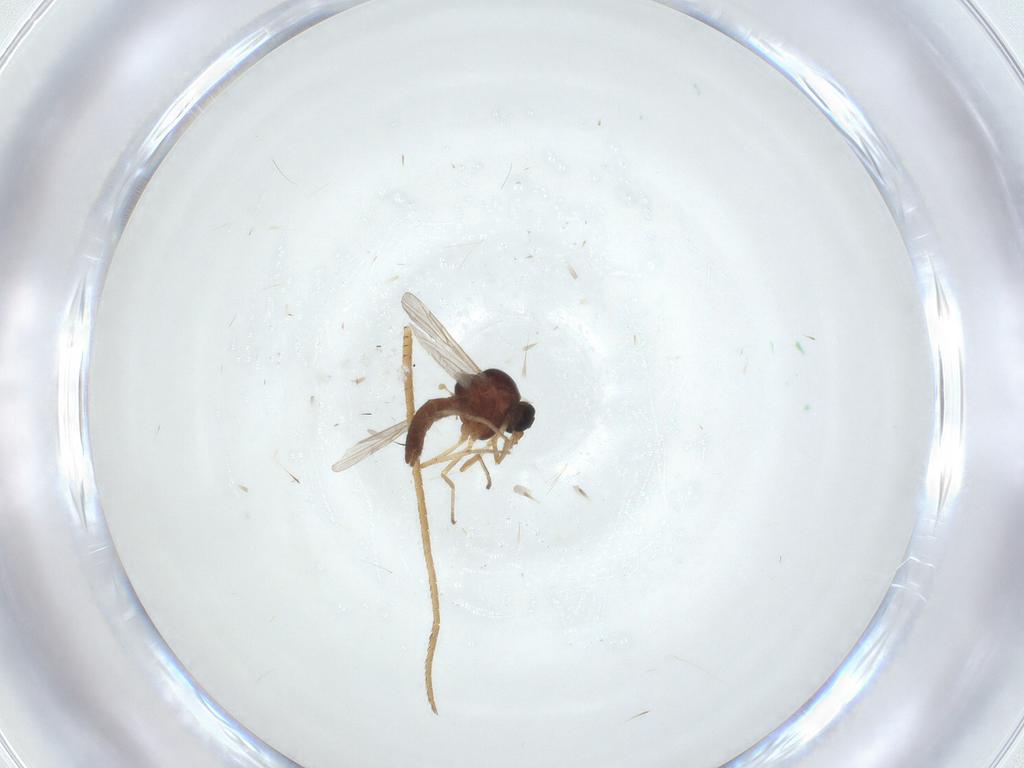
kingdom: Animalia
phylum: Arthropoda
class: Insecta
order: Diptera
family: Ceratopogonidae
